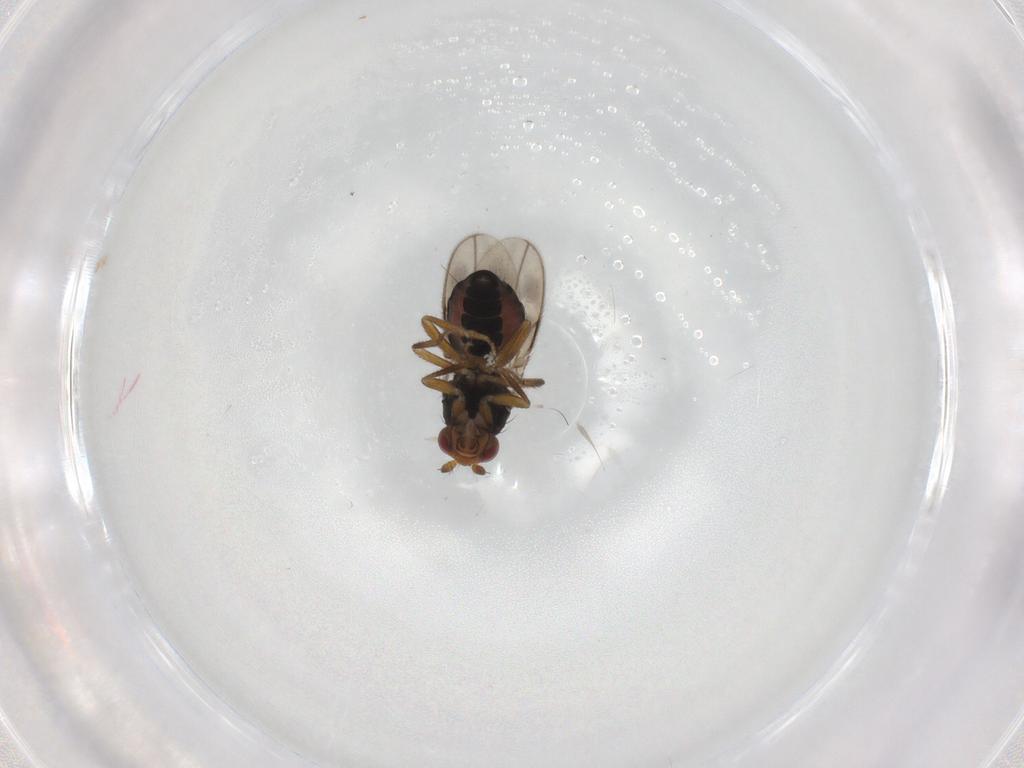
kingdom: Animalia
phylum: Arthropoda
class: Insecta
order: Diptera
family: Sphaeroceridae
